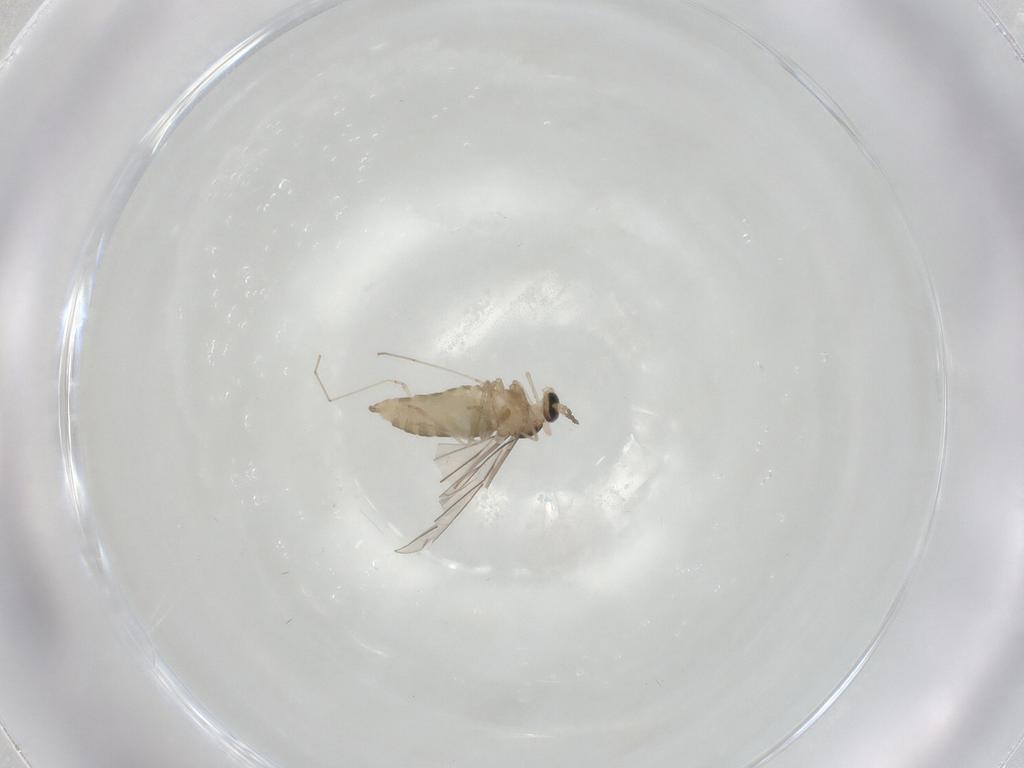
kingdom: Animalia
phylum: Arthropoda
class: Insecta
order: Diptera
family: Cecidomyiidae
